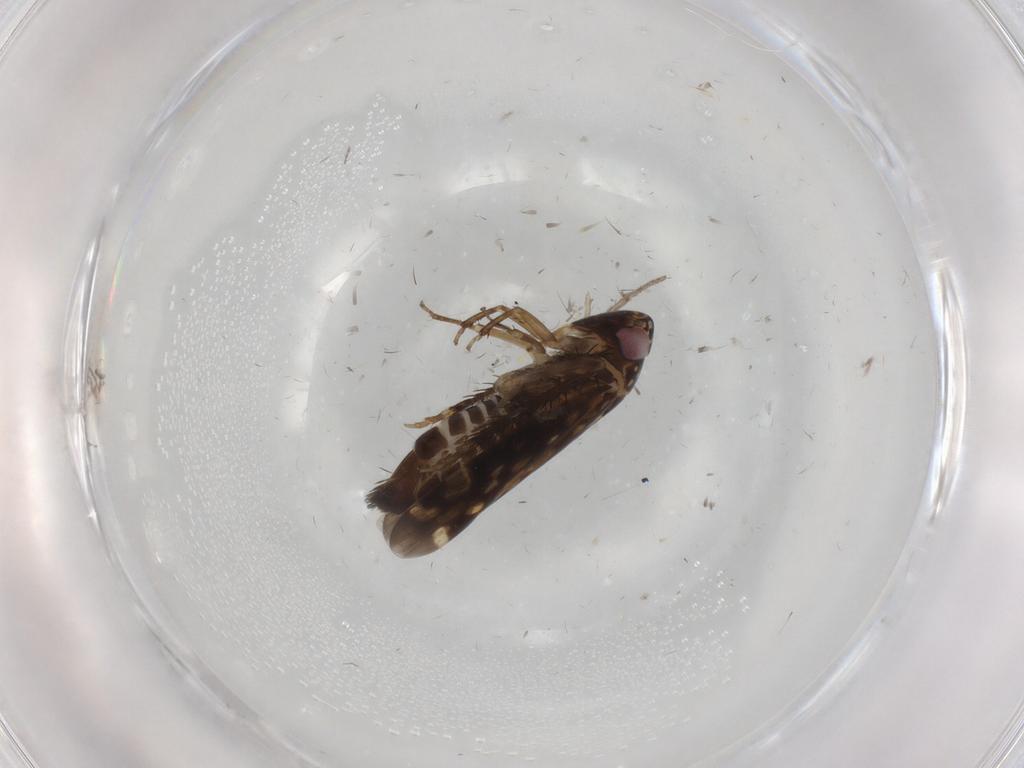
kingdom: Animalia
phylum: Arthropoda
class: Insecta
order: Hemiptera
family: Cicadellidae
